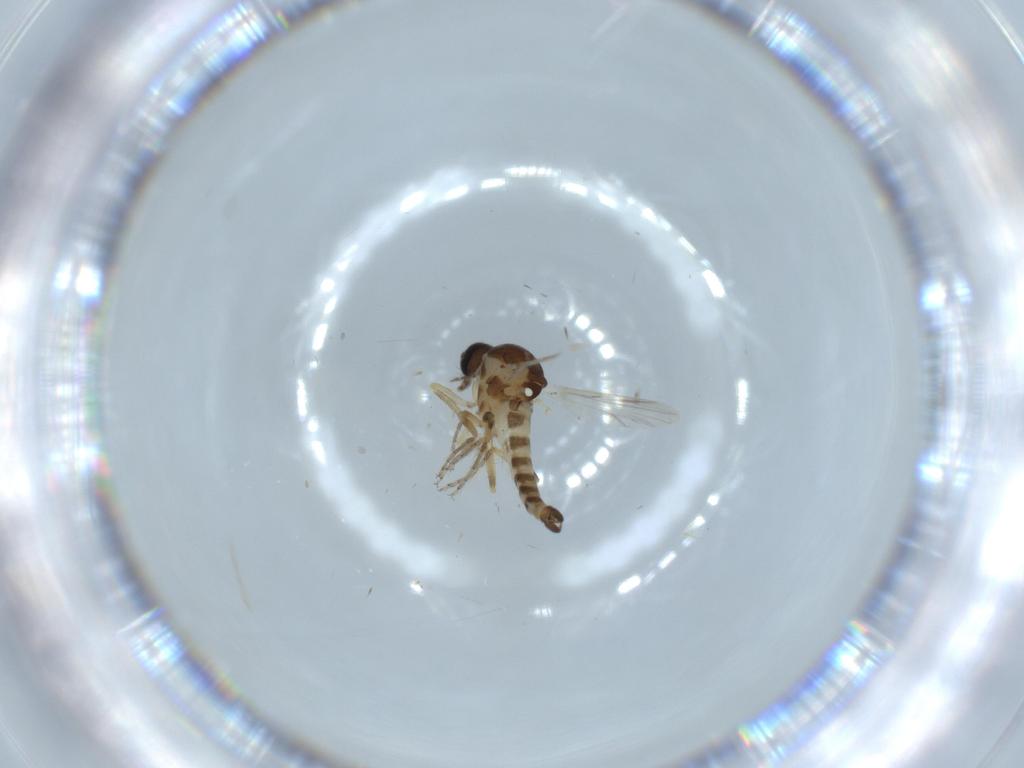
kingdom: Animalia
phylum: Arthropoda
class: Insecta
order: Diptera
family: Ceratopogonidae
